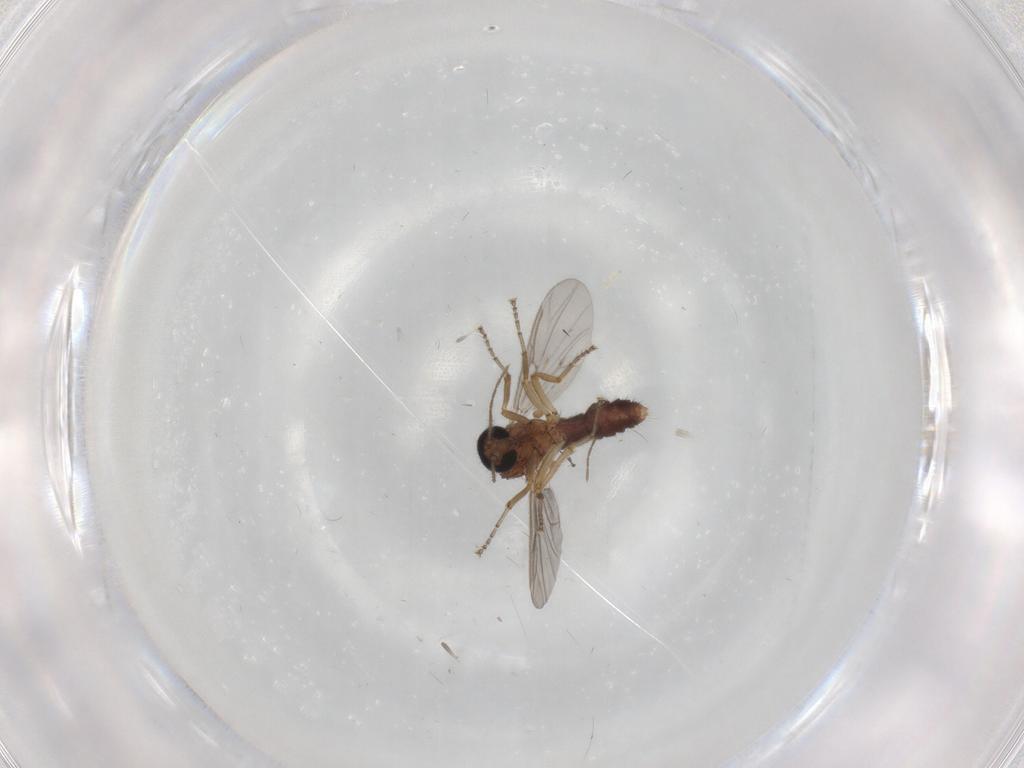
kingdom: Animalia
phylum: Arthropoda
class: Insecta
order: Diptera
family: Ceratopogonidae
